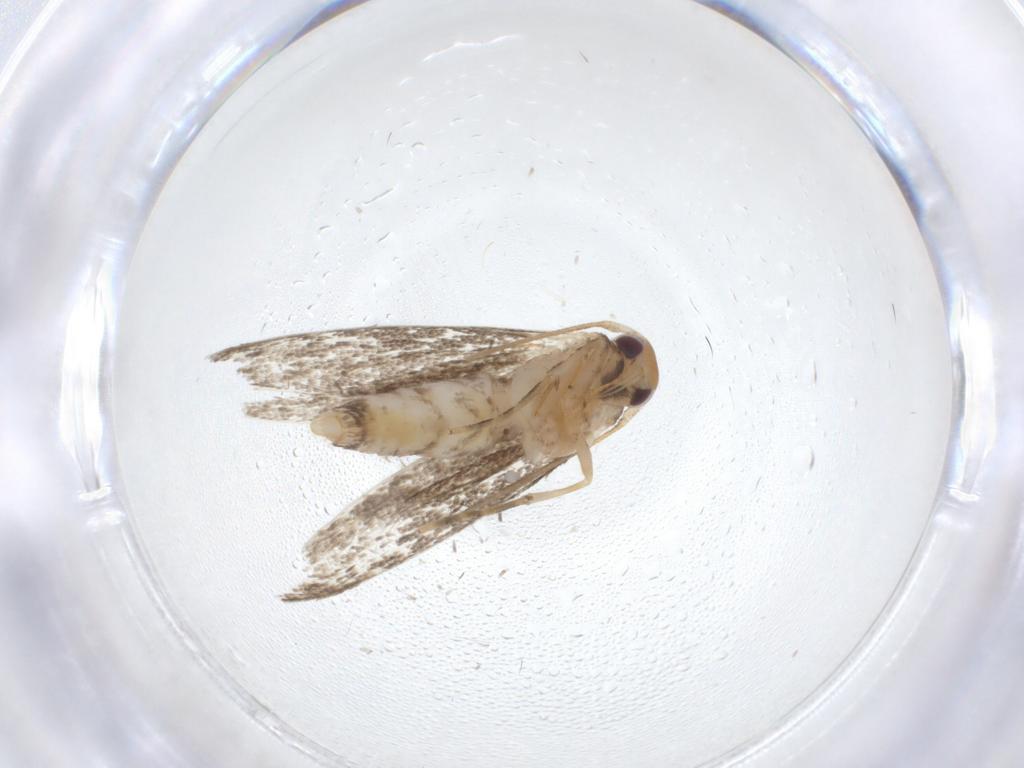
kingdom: Animalia
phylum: Arthropoda
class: Insecta
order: Lepidoptera
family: Momphidae
